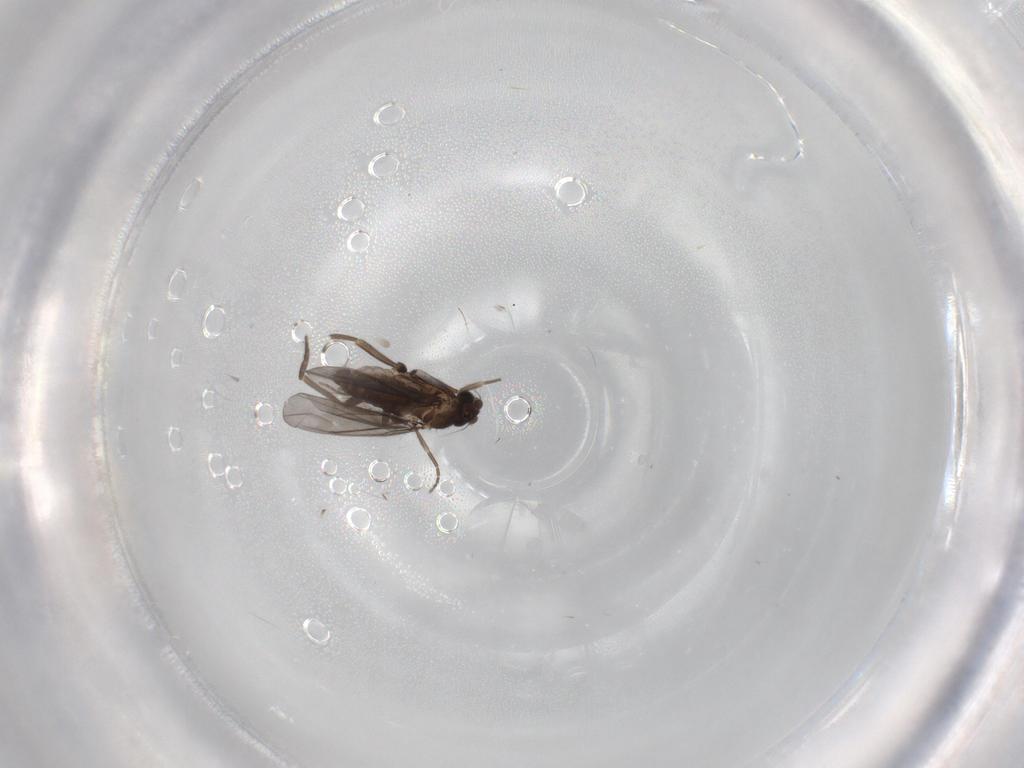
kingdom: Animalia
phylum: Arthropoda
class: Insecta
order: Diptera
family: Phoridae
